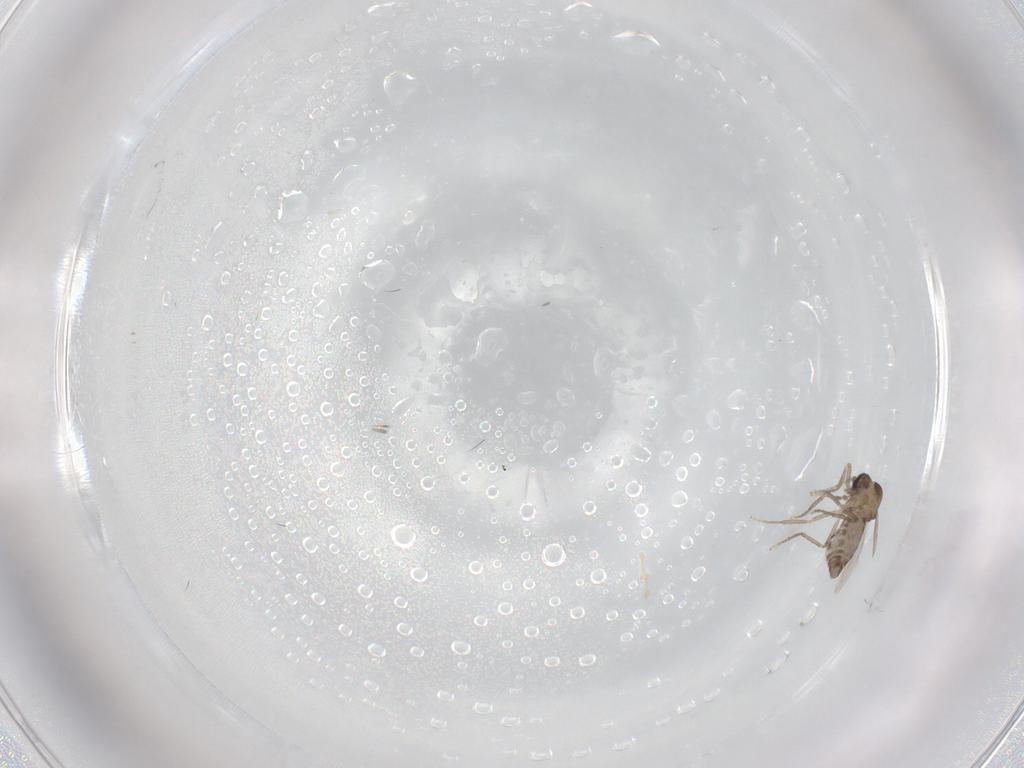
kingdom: Animalia
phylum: Arthropoda
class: Insecta
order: Diptera
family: Ceratopogonidae
